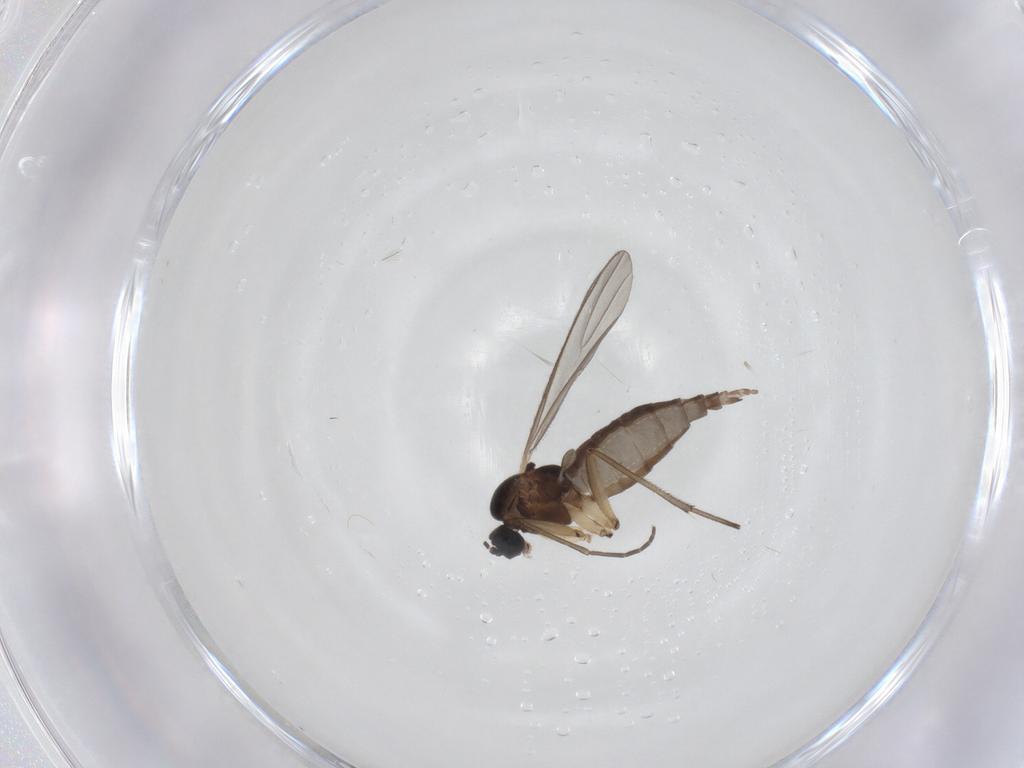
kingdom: Animalia
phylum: Arthropoda
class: Insecta
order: Diptera
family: Sciaridae
